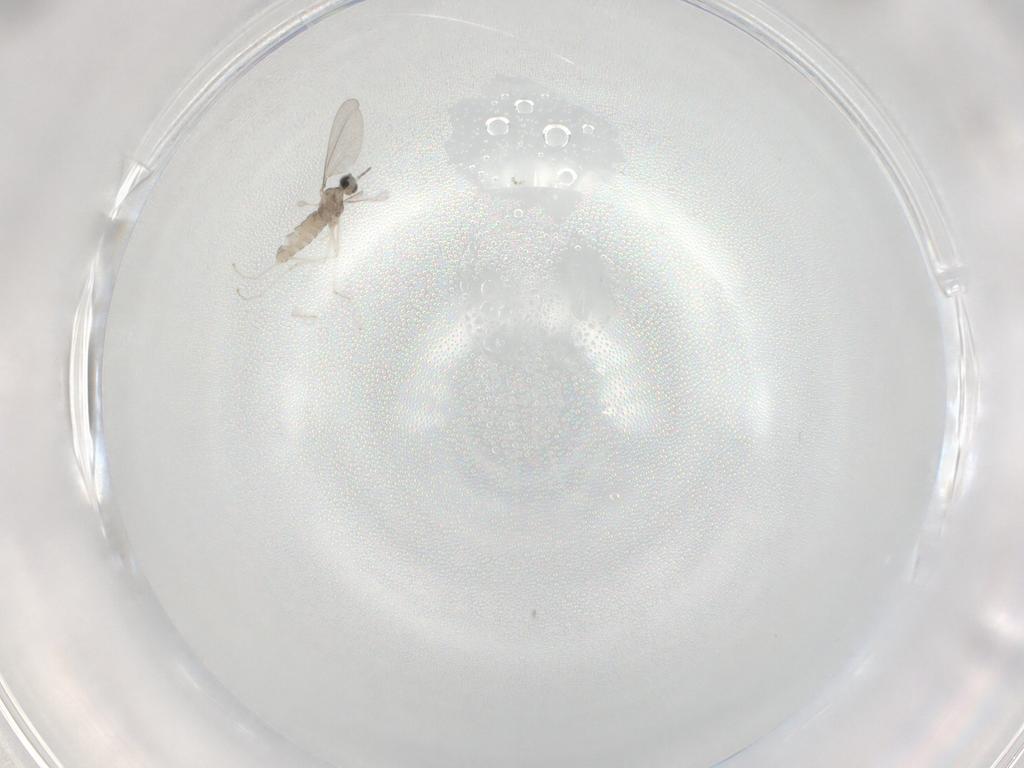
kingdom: Animalia
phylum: Arthropoda
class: Insecta
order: Diptera
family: Cecidomyiidae
